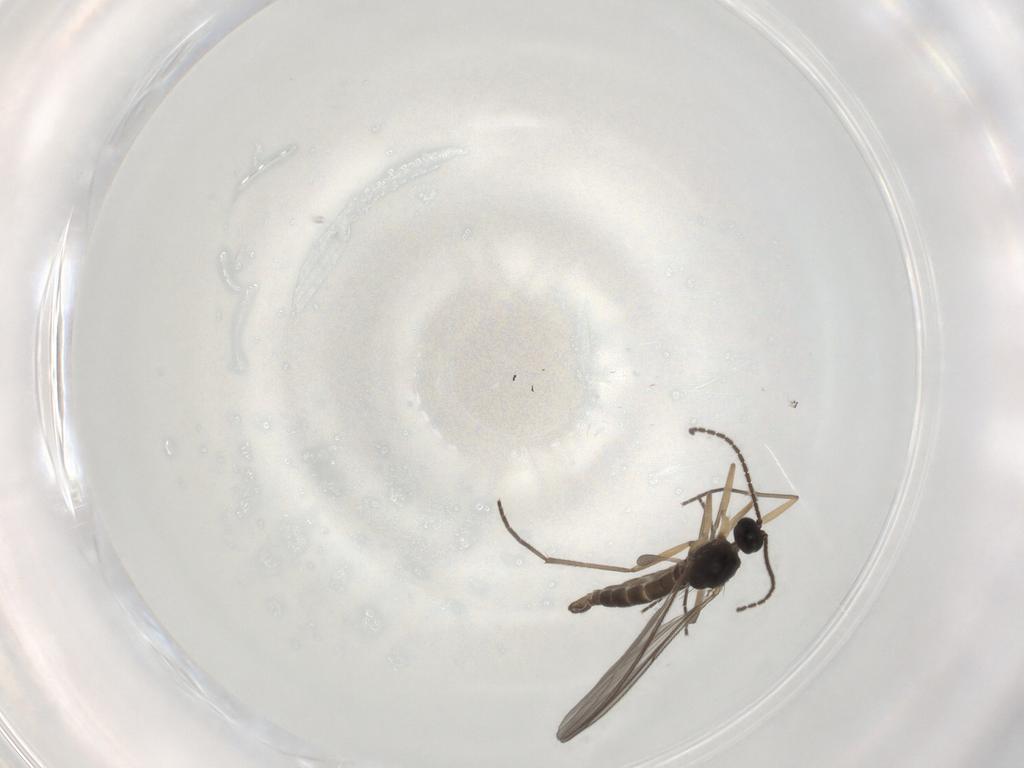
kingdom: Animalia
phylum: Arthropoda
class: Insecta
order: Diptera
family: Sciaridae
